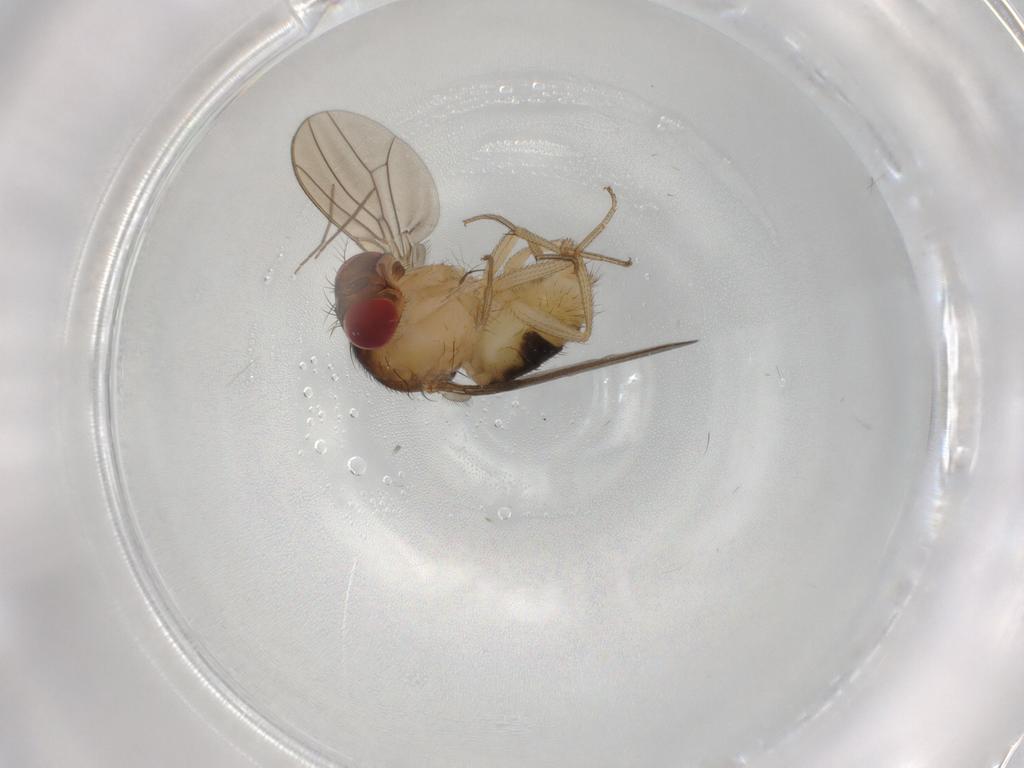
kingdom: Animalia
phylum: Arthropoda
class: Insecta
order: Diptera
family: Drosophilidae
